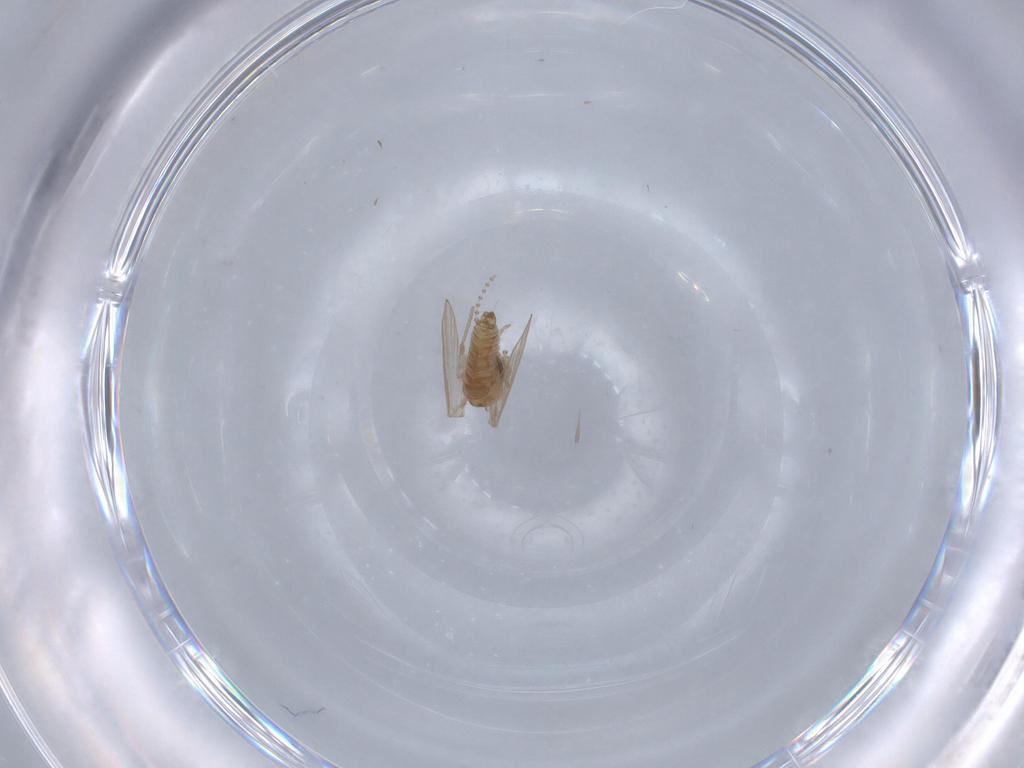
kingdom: Animalia
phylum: Arthropoda
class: Insecta
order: Diptera
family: Ceratopogonidae
